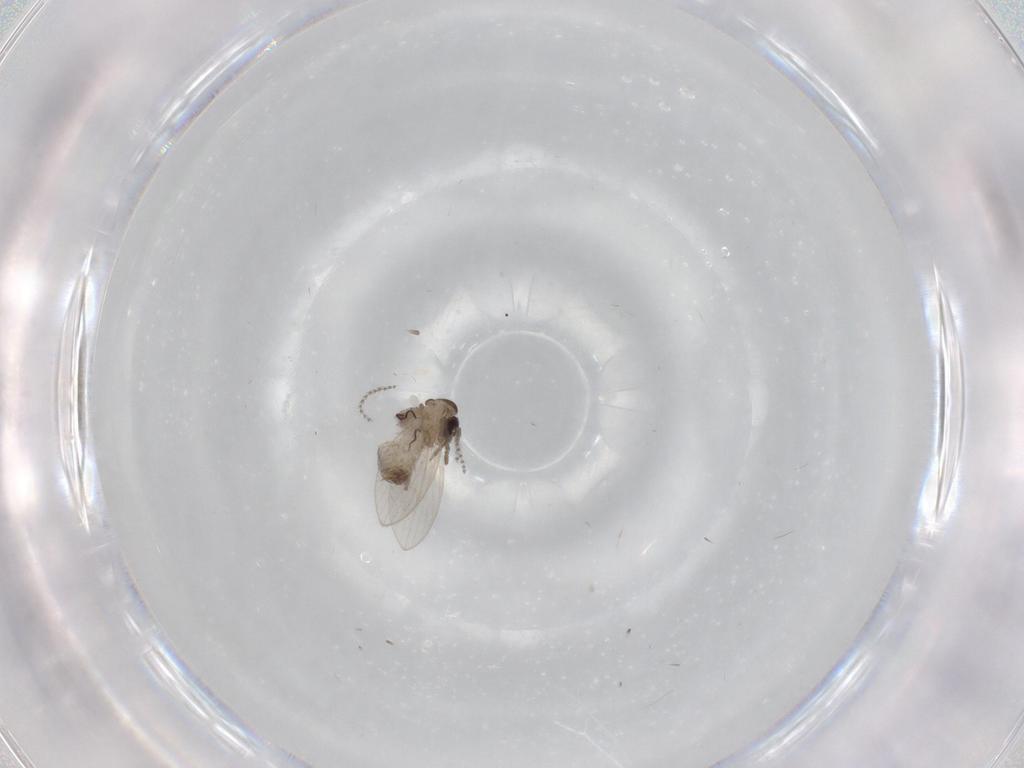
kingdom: Animalia
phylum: Arthropoda
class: Insecta
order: Diptera
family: Psychodidae
